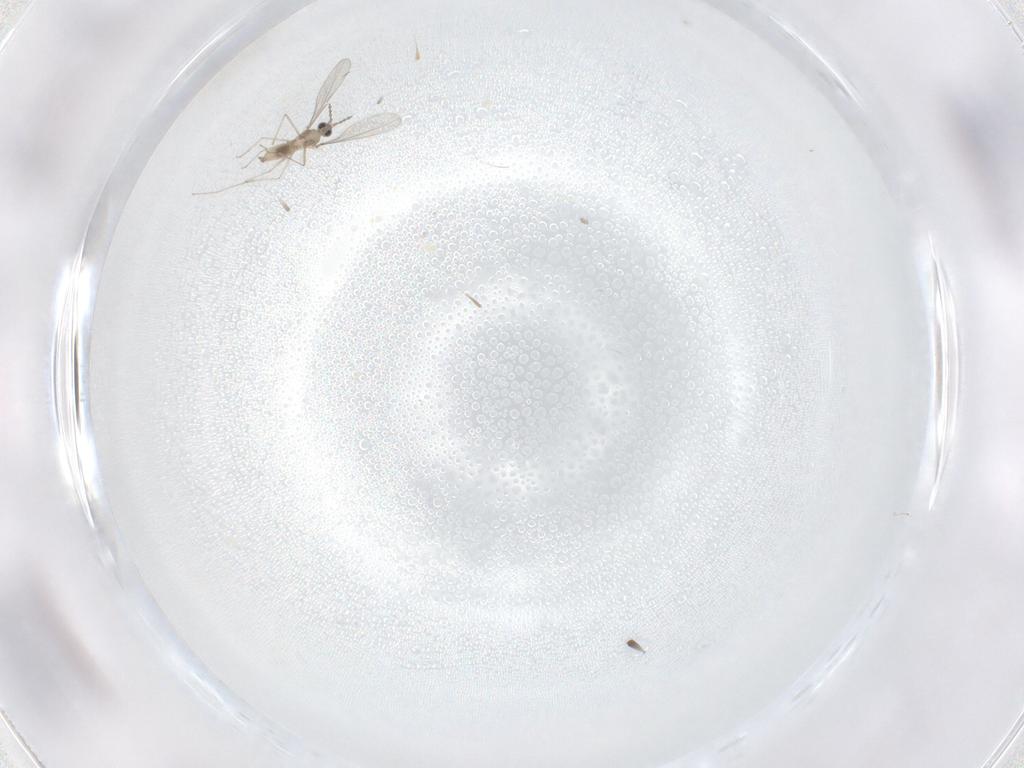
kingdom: Animalia
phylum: Arthropoda
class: Insecta
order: Diptera
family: Cecidomyiidae
